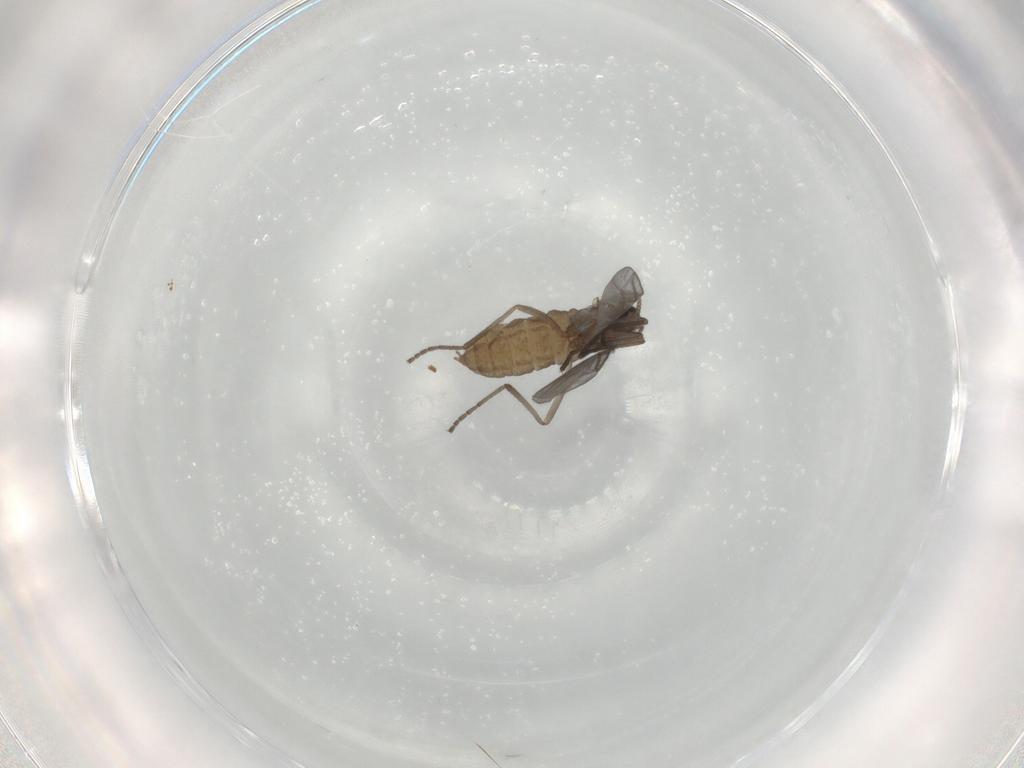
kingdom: Animalia
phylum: Arthropoda
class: Insecta
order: Diptera
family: Cecidomyiidae
